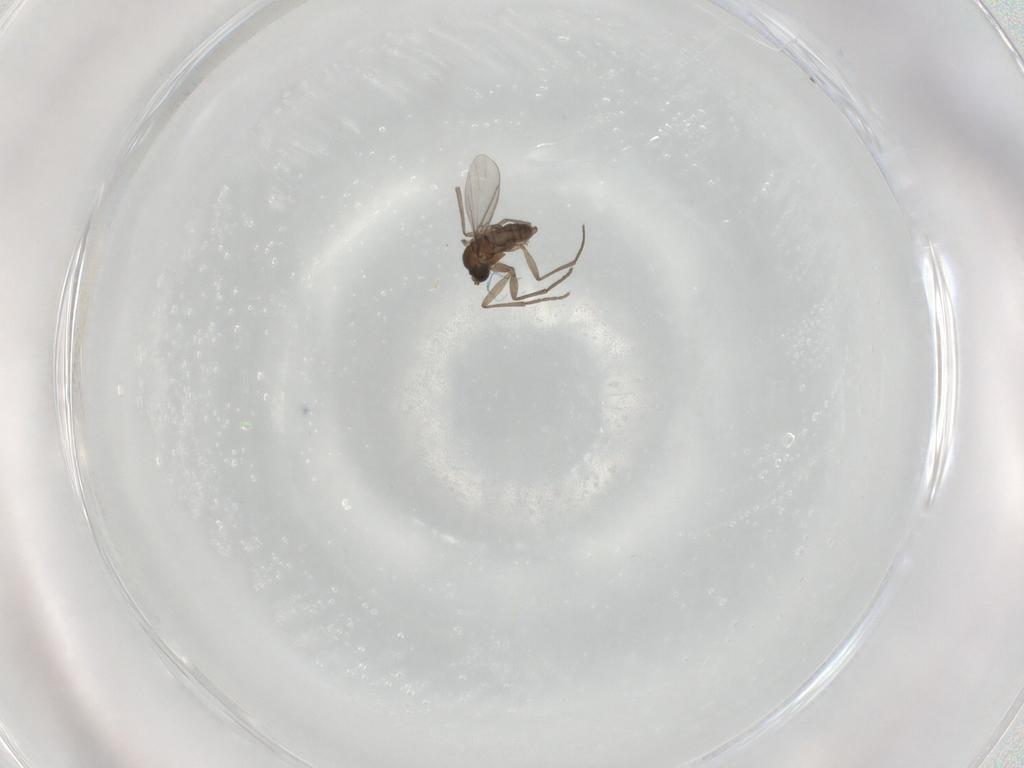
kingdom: Animalia
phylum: Arthropoda
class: Insecta
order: Diptera
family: Sciaridae
